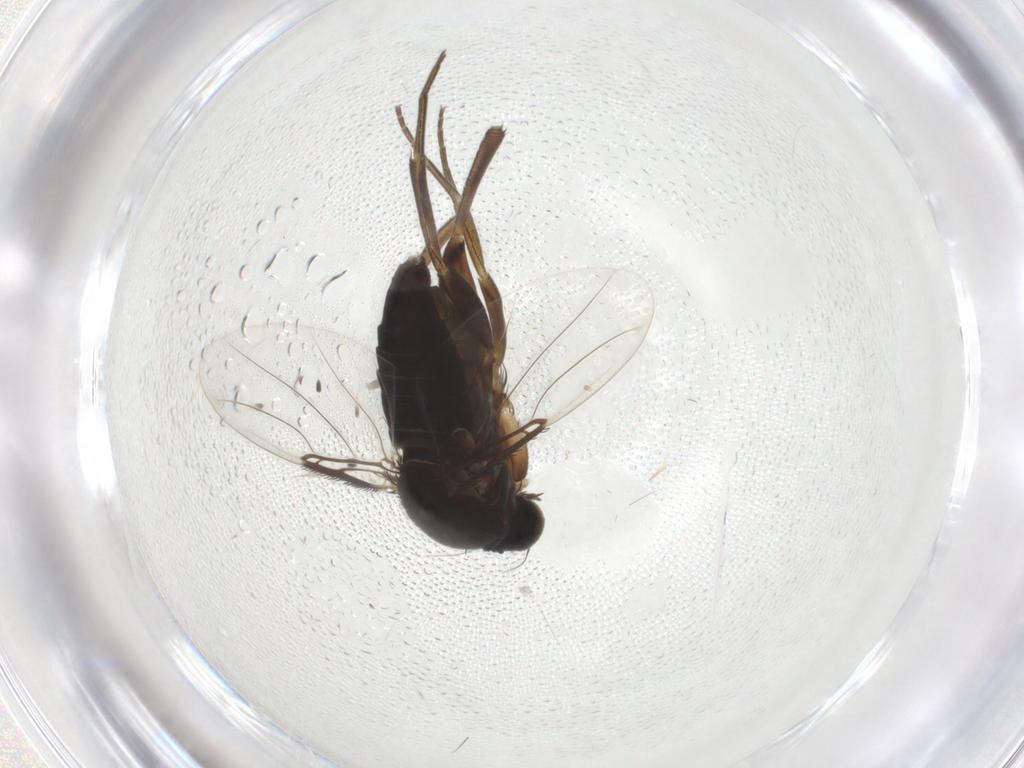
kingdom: Animalia
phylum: Arthropoda
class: Insecta
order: Diptera
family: Phoridae
